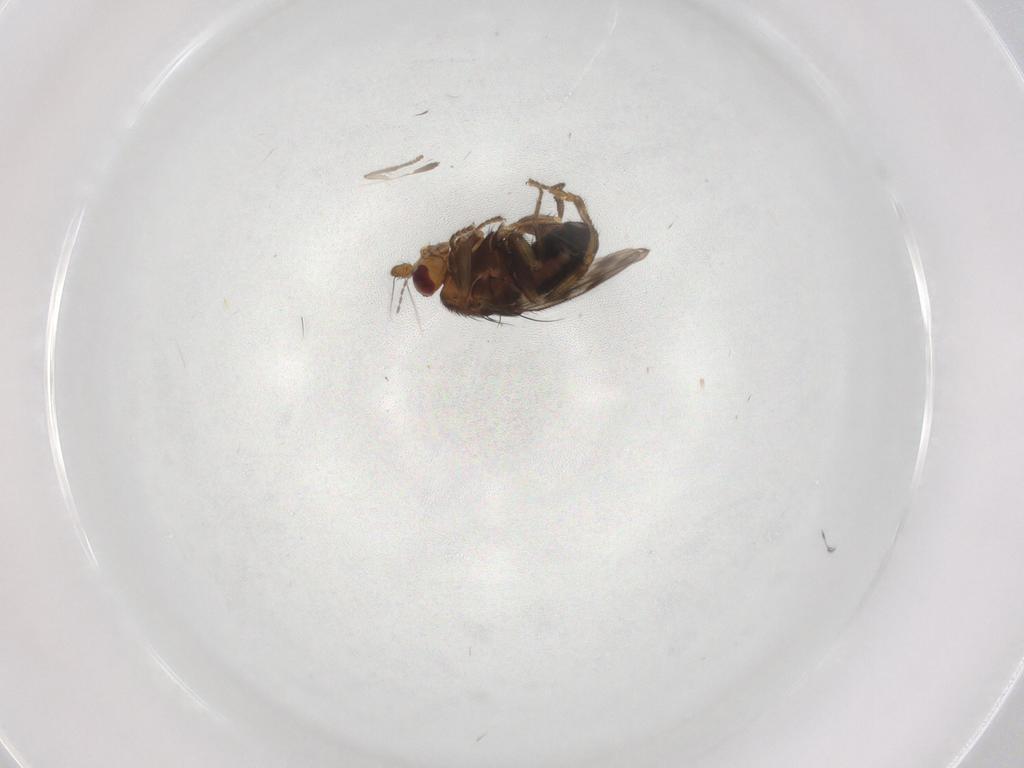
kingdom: Animalia
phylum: Arthropoda
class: Insecta
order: Diptera
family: Sphaeroceridae
